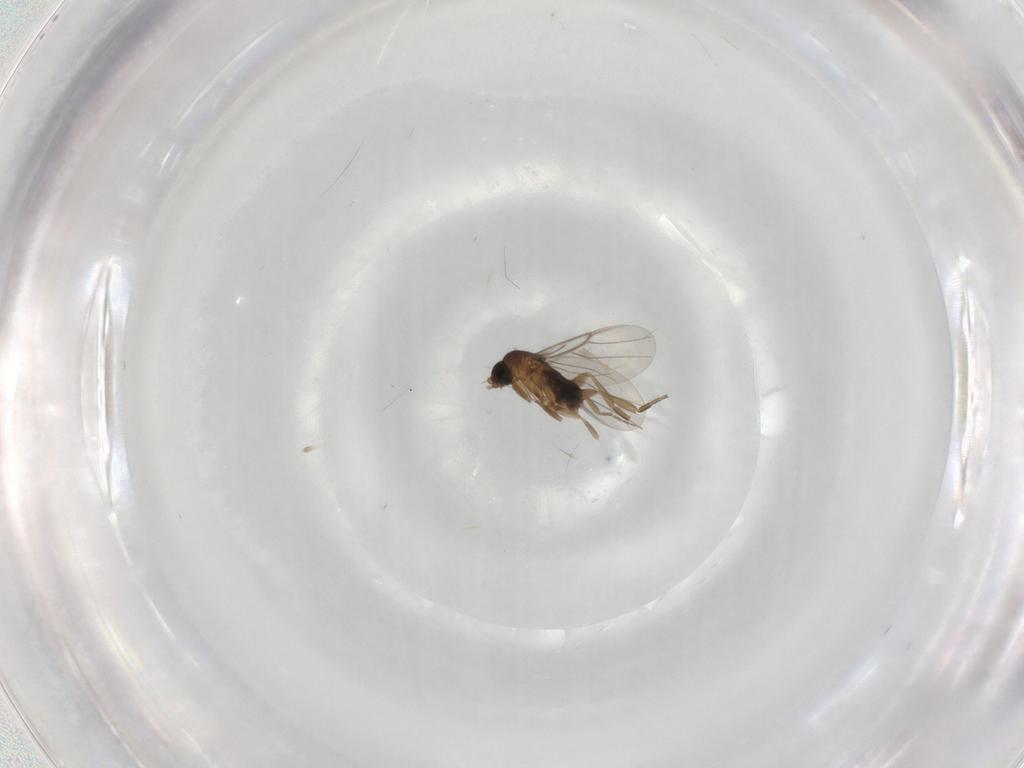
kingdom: Animalia
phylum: Arthropoda
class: Insecta
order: Diptera
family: Phoridae
